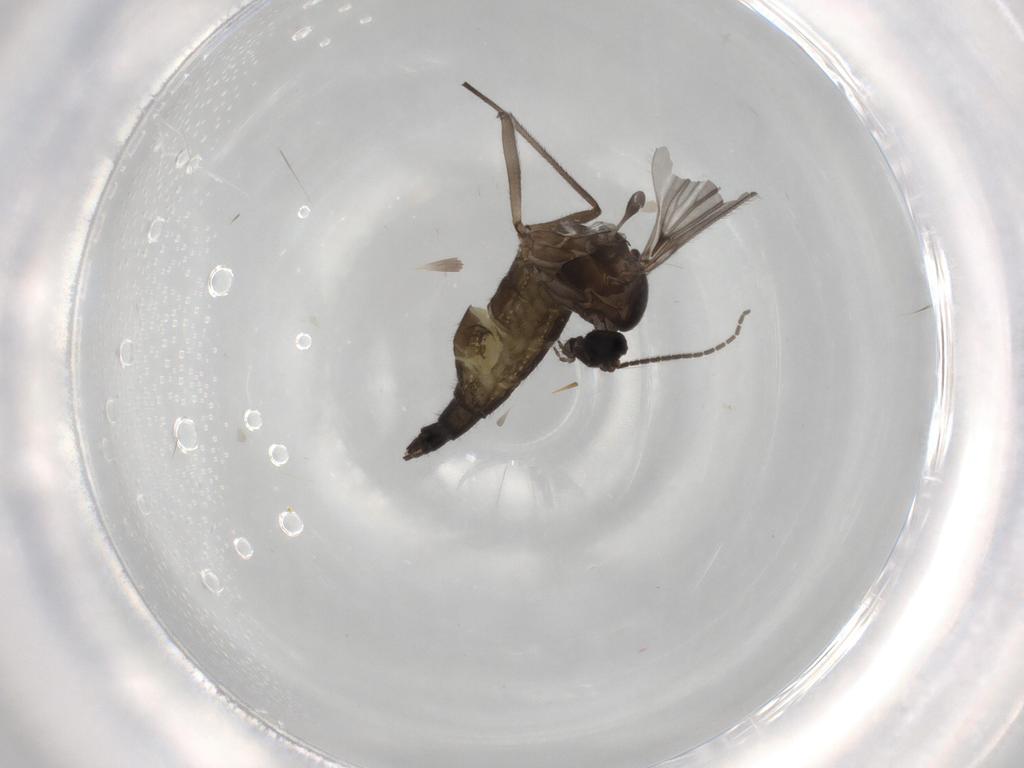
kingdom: Animalia
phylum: Arthropoda
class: Insecta
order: Diptera
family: Sciaridae
